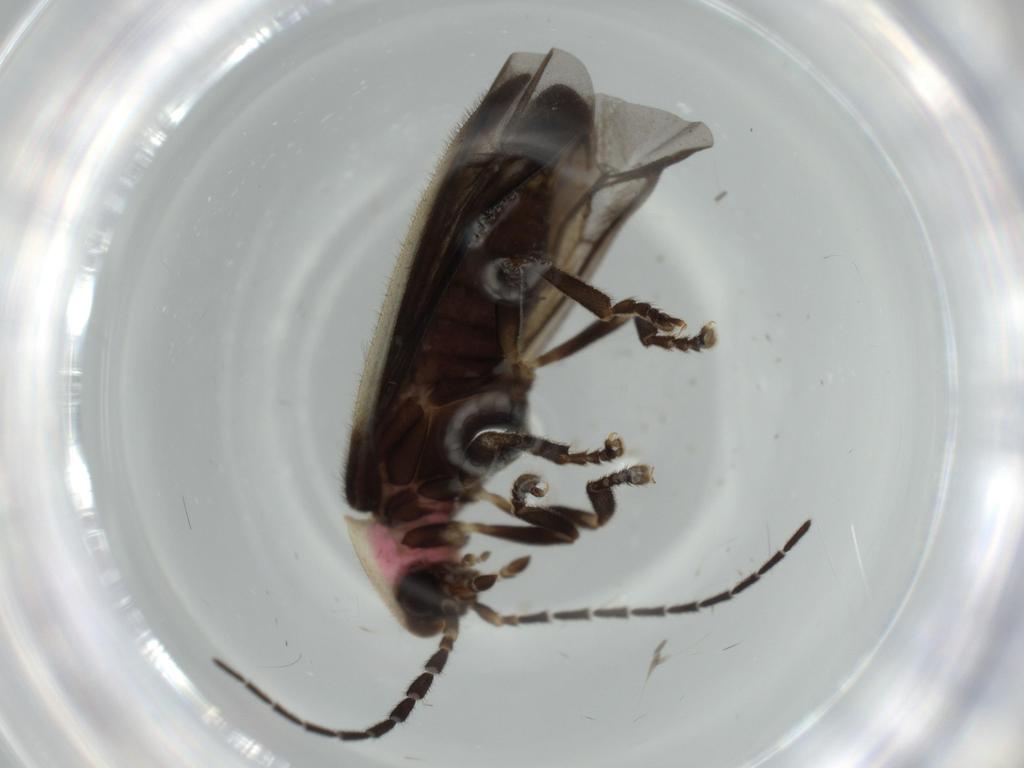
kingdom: Animalia
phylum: Arthropoda
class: Insecta
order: Coleoptera
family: Lampyridae
